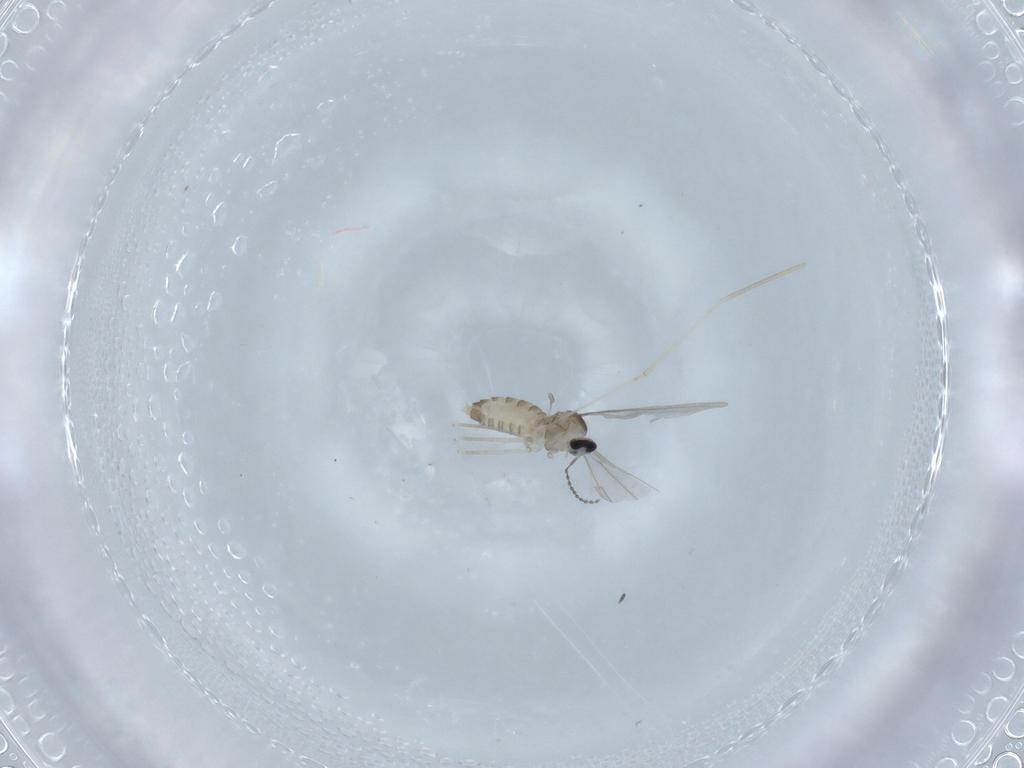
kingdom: Animalia
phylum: Arthropoda
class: Insecta
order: Diptera
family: Cecidomyiidae
